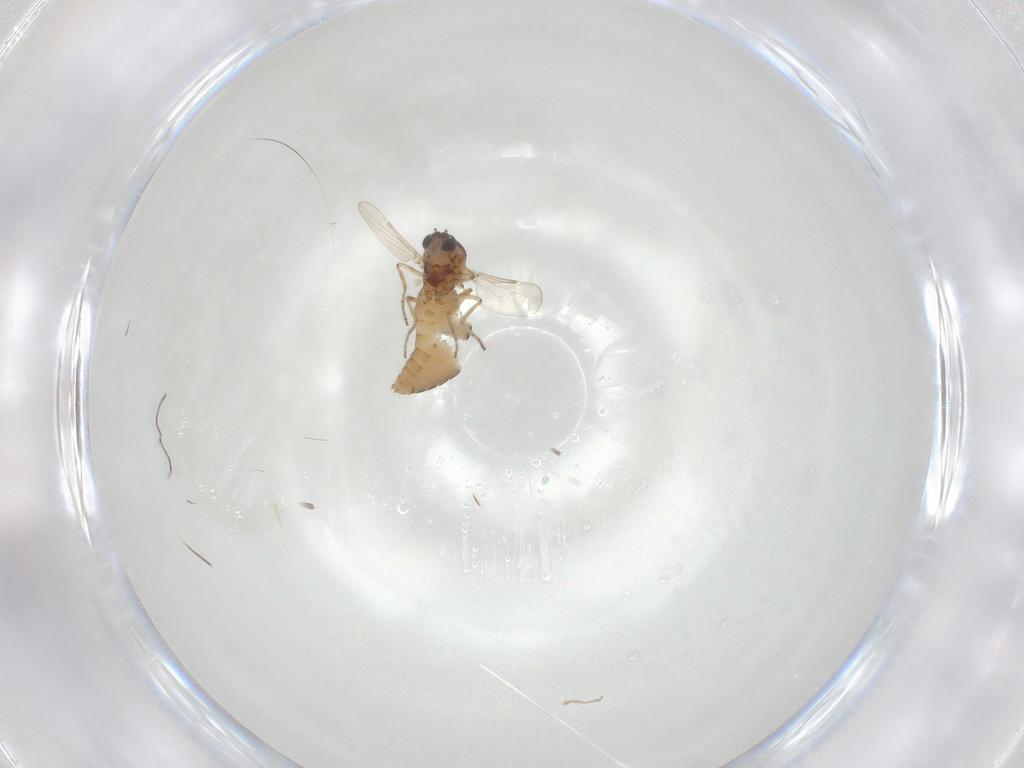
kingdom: Animalia
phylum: Arthropoda
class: Insecta
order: Diptera
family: Ceratopogonidae
